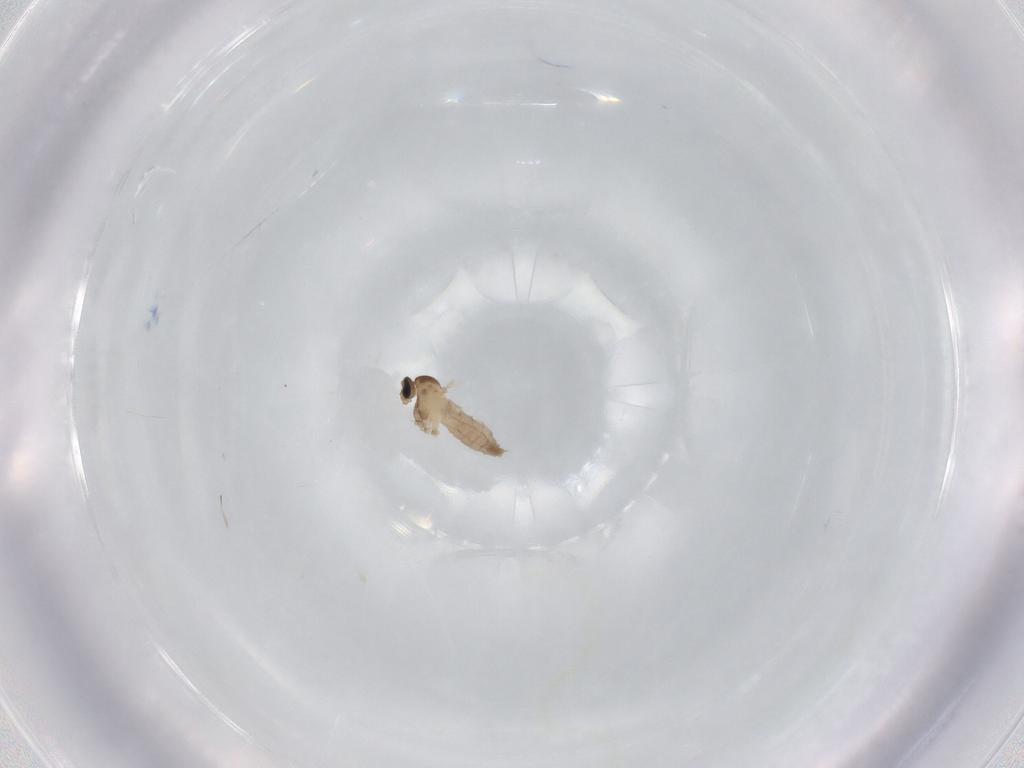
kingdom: Animalia
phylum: Arthropoda
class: Insecta
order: Diptera
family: Cecidomyiidae
